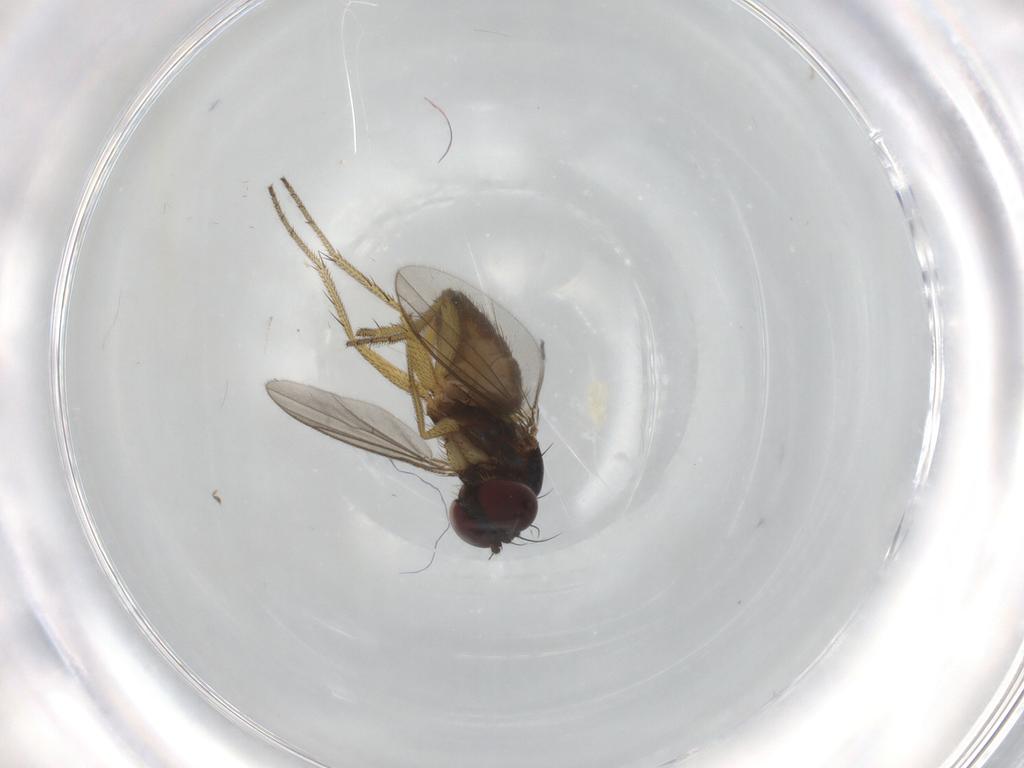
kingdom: Animalia
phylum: Arthropoda
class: Insecta
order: Diptera
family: Dolichopodidae
